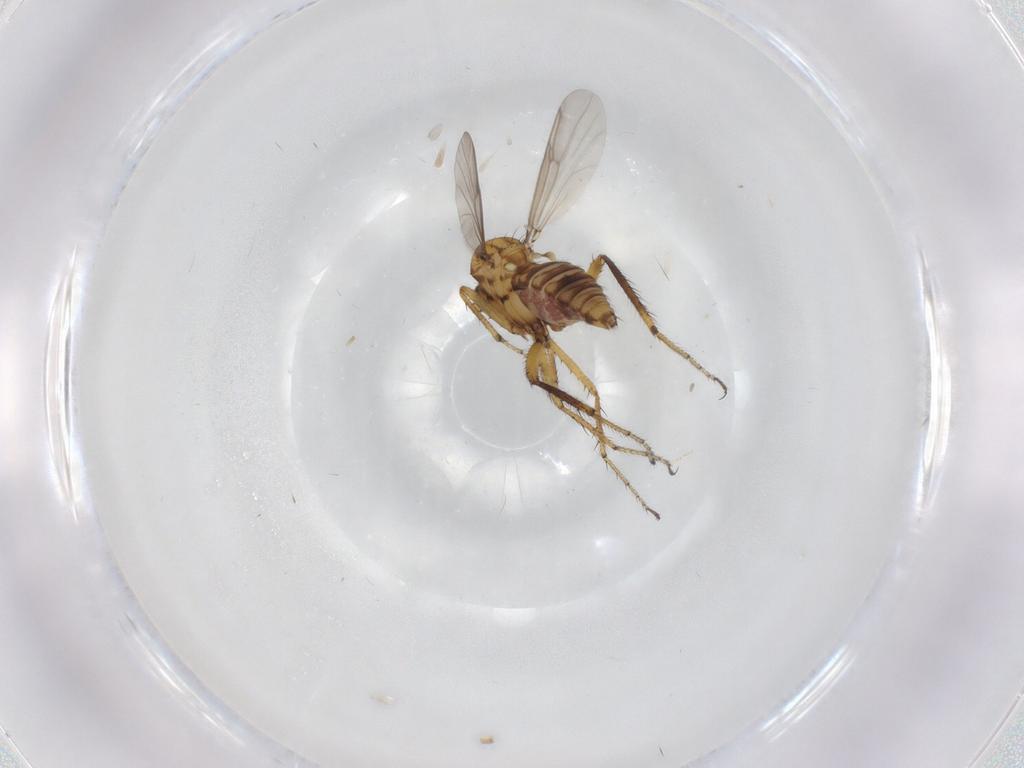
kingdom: Animalia
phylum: Arthropoda
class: Insecta
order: Diptera
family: Ceratopogonidae
